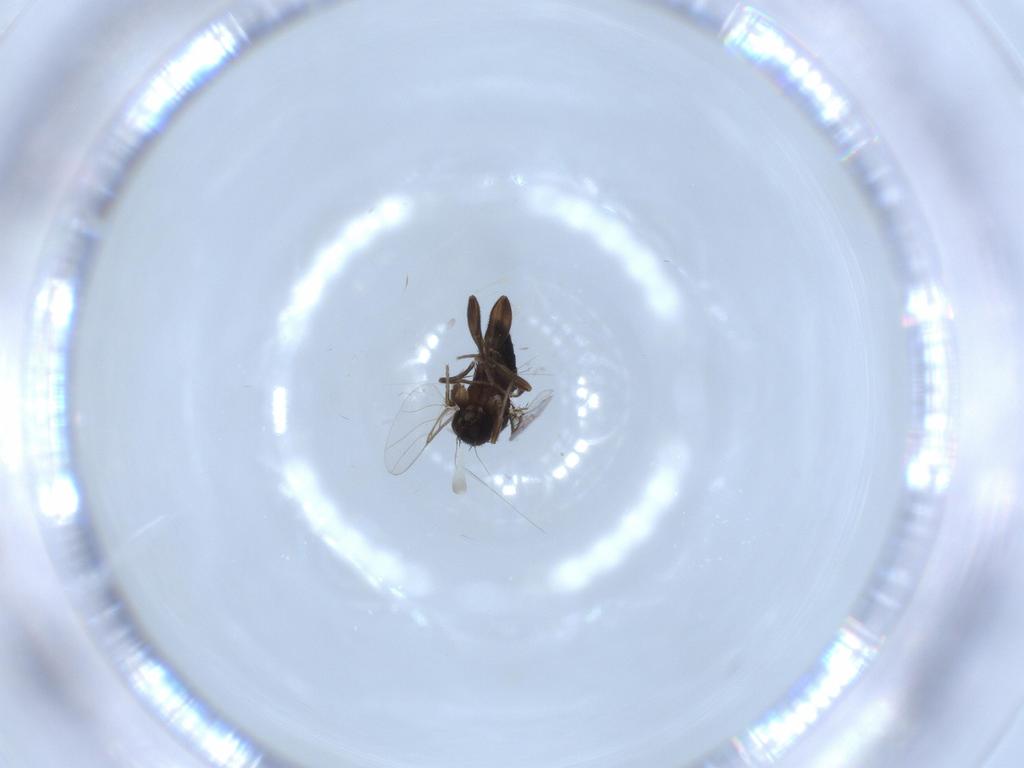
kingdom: Animalia
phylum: Arthropoda
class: Insecta
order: Diptera
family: Phoridae
